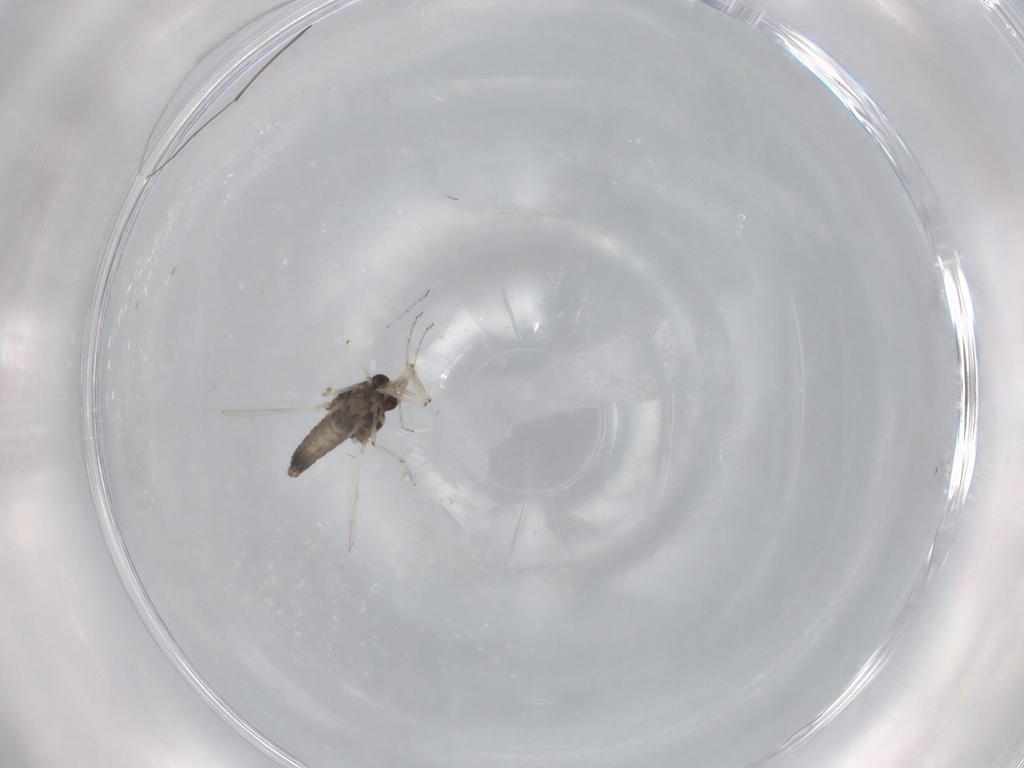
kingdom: Animalia
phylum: Arthropoda
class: Insecta
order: Diptera
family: Ceratopogonidae
